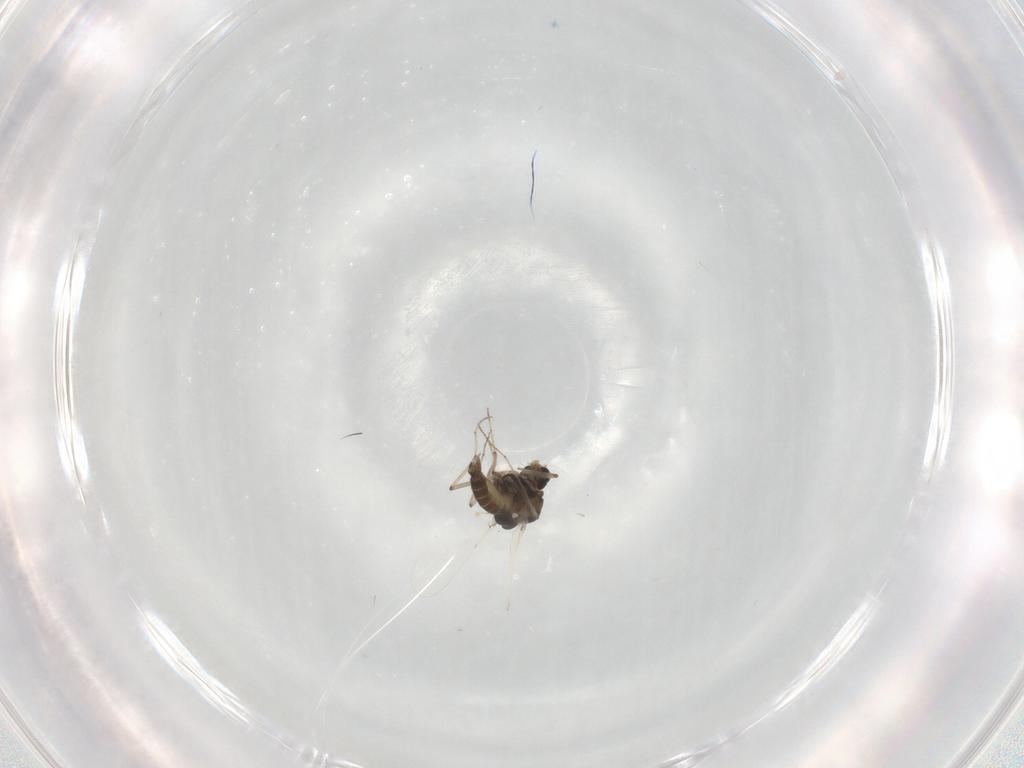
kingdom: Animalia
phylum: Arthropoda
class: Insecta
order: Diptera
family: Chironomidae
